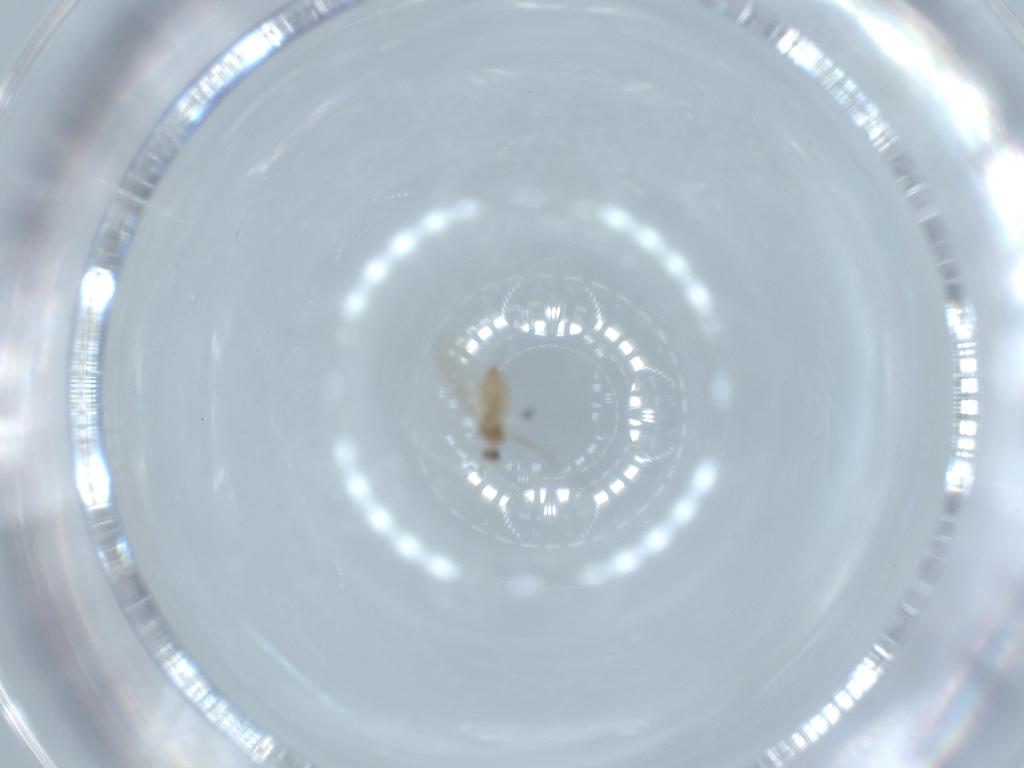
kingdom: Animalia
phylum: Arthropoda
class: Insecta
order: Diptera
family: Cecidomyiidae
